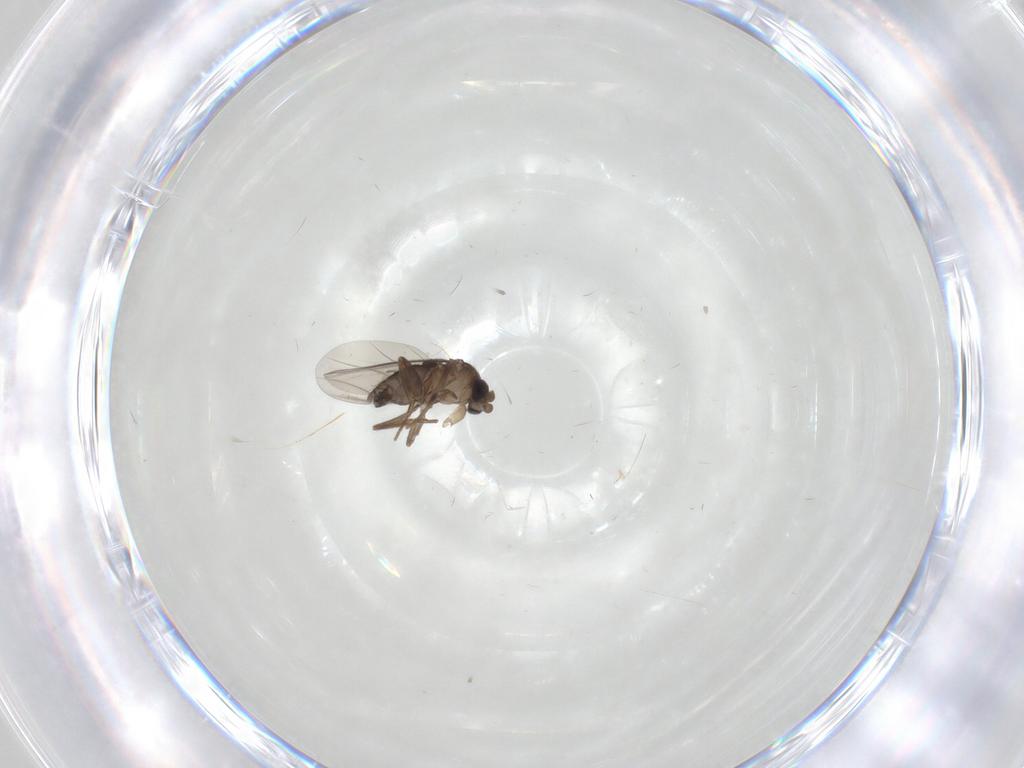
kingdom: Animalia
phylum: Arthropoda
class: Insecta
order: Diptera
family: Phoridae
